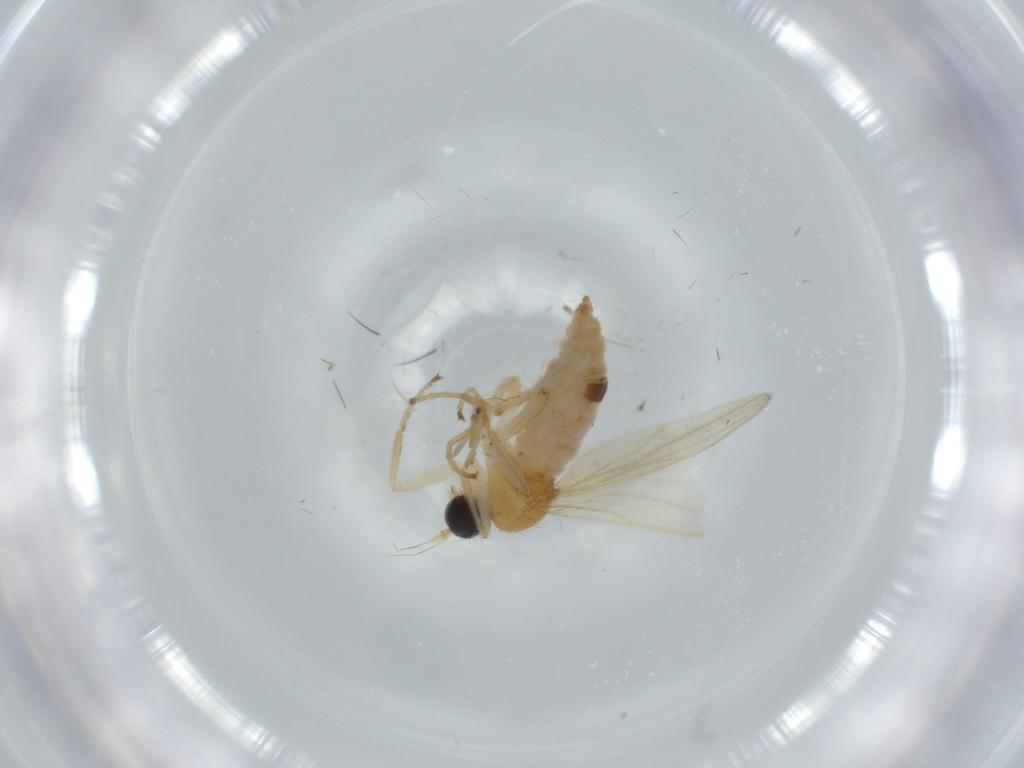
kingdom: Animalia
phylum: Arthropoda
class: Insecta
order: Diptera
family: Hybotidae
